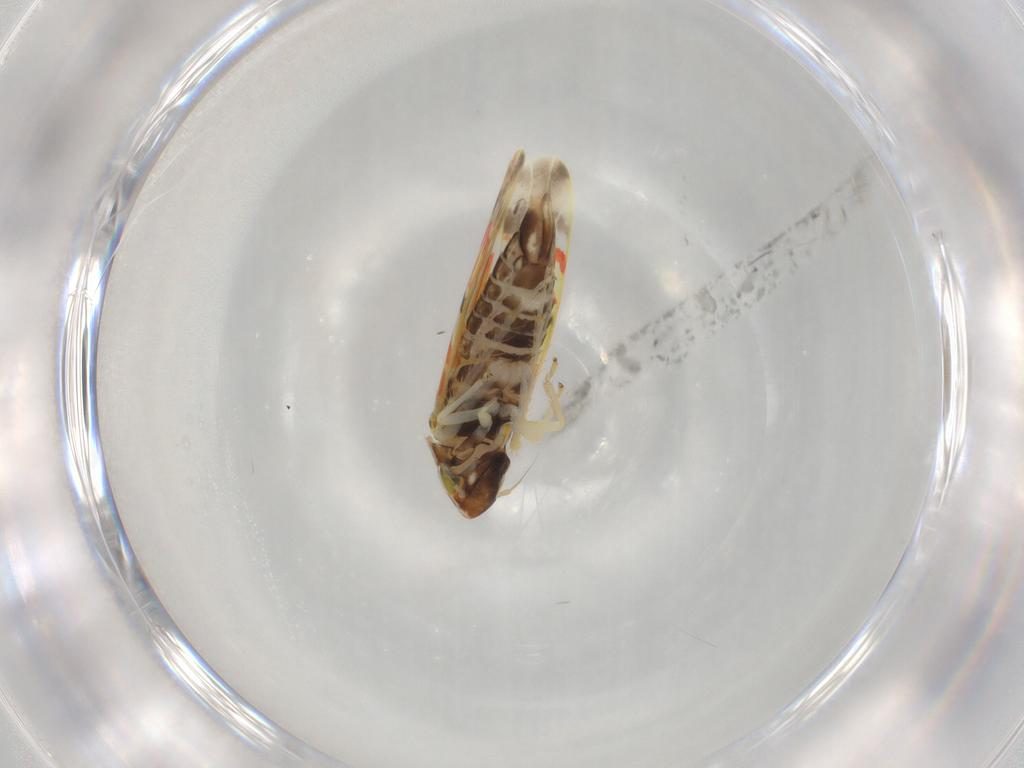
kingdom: Animalia
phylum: Arthropoda
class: Insecta
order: Hemiptera
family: Cicadellidae
